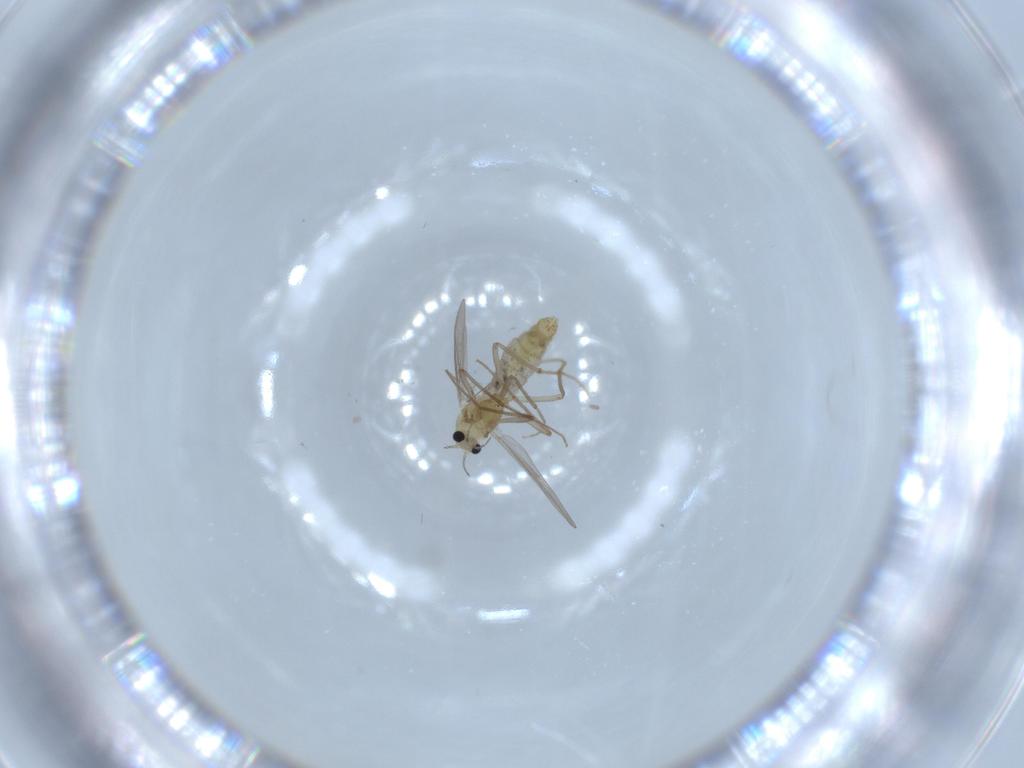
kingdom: Animalia
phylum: Arthropoda
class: Insecta
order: Diptera
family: Chironomidae
